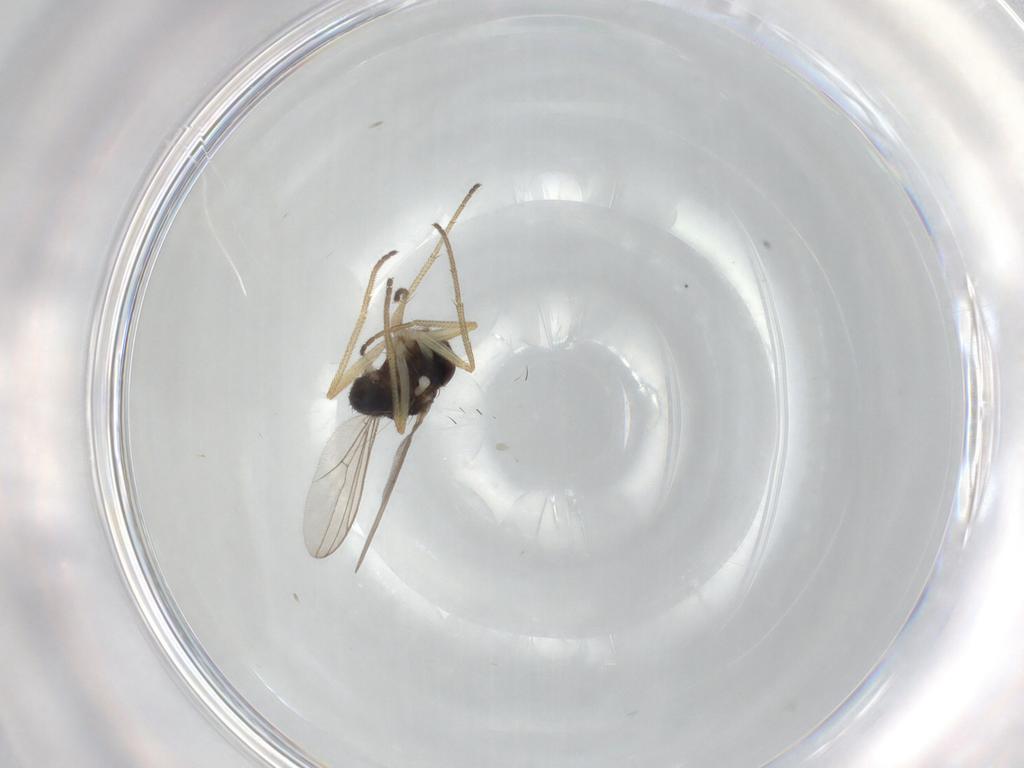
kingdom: Animalia
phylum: Arthropoda
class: Insecta
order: Diptera
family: Dolichopodidae
